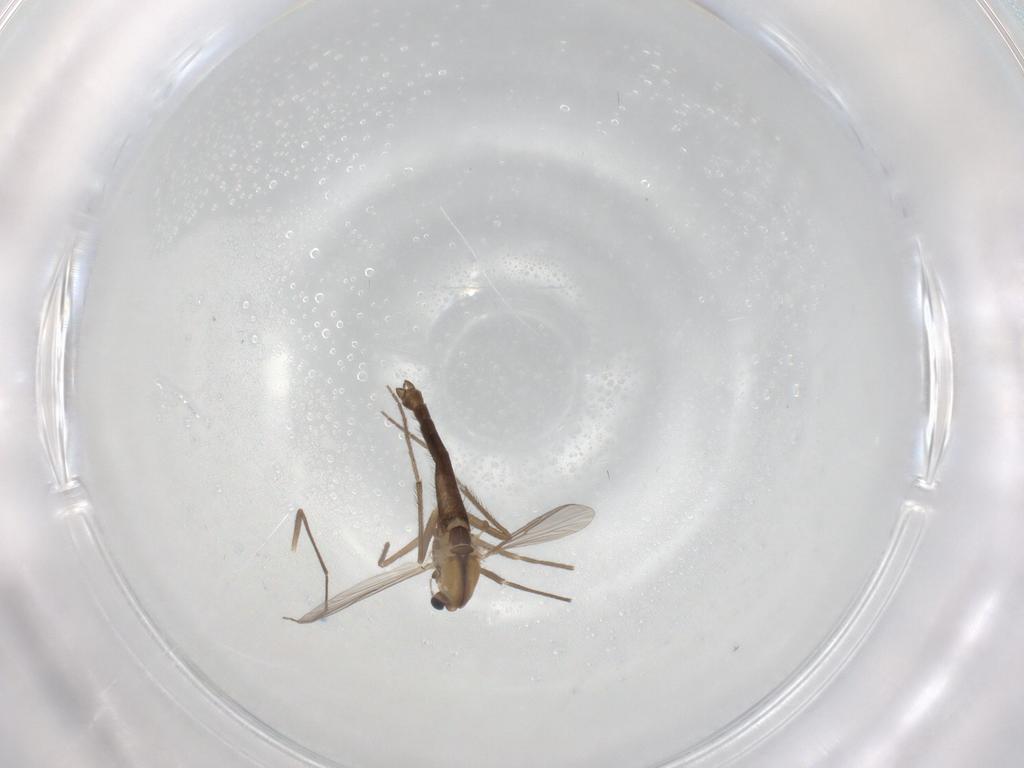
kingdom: Animalia
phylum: Arthropoda
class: Insecta
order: Diptera
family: Chironomidae
